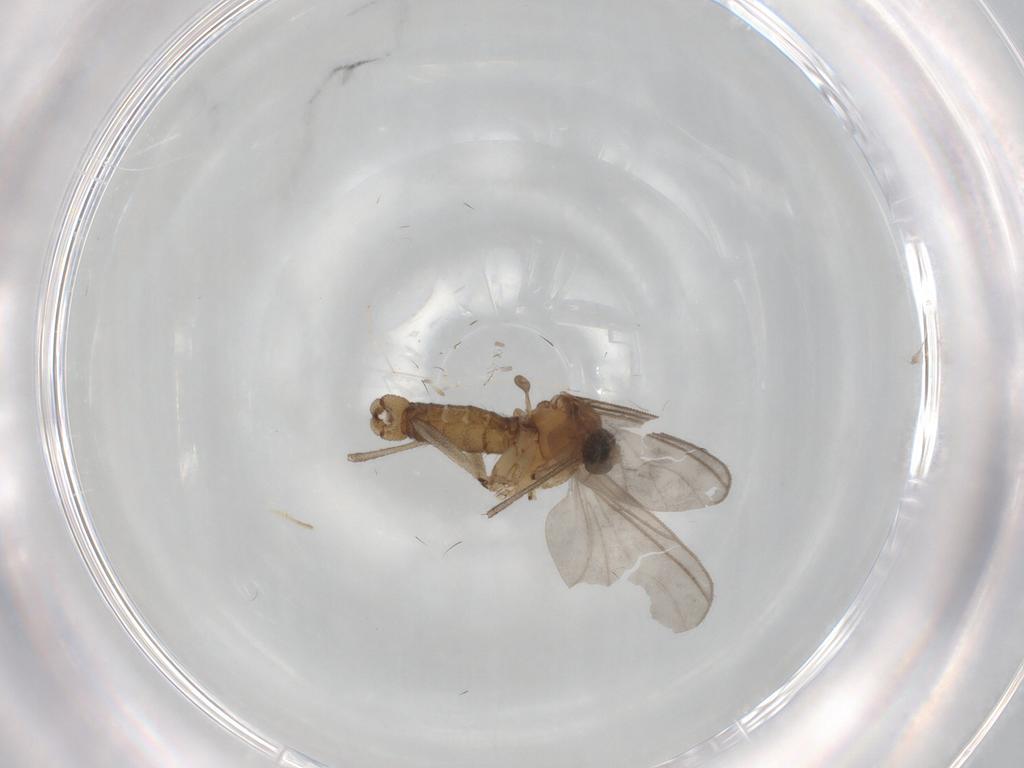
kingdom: Animalia
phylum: Arthropoda
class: Insecta
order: Diptera
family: Sciaridae
